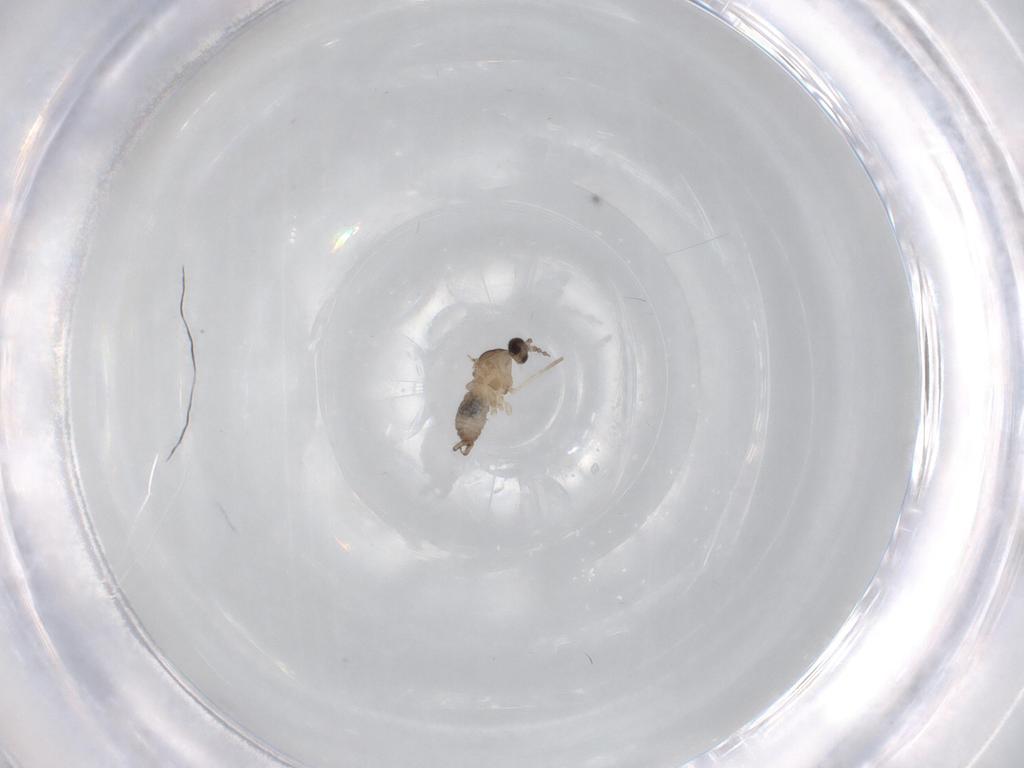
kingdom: Animalia
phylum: Arthropoda
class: Insecta
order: Diptera
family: Cecidomyiidae
